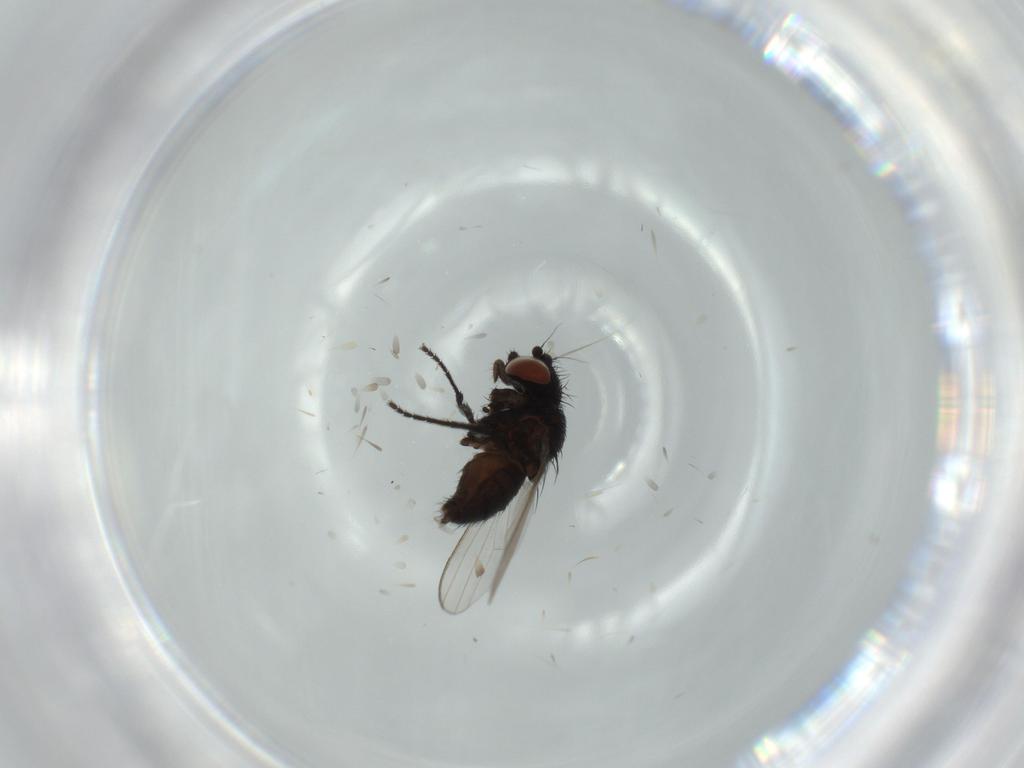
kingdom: Animalia
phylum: Arthropoda
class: Insecta
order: Diptera
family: Milichiidae
